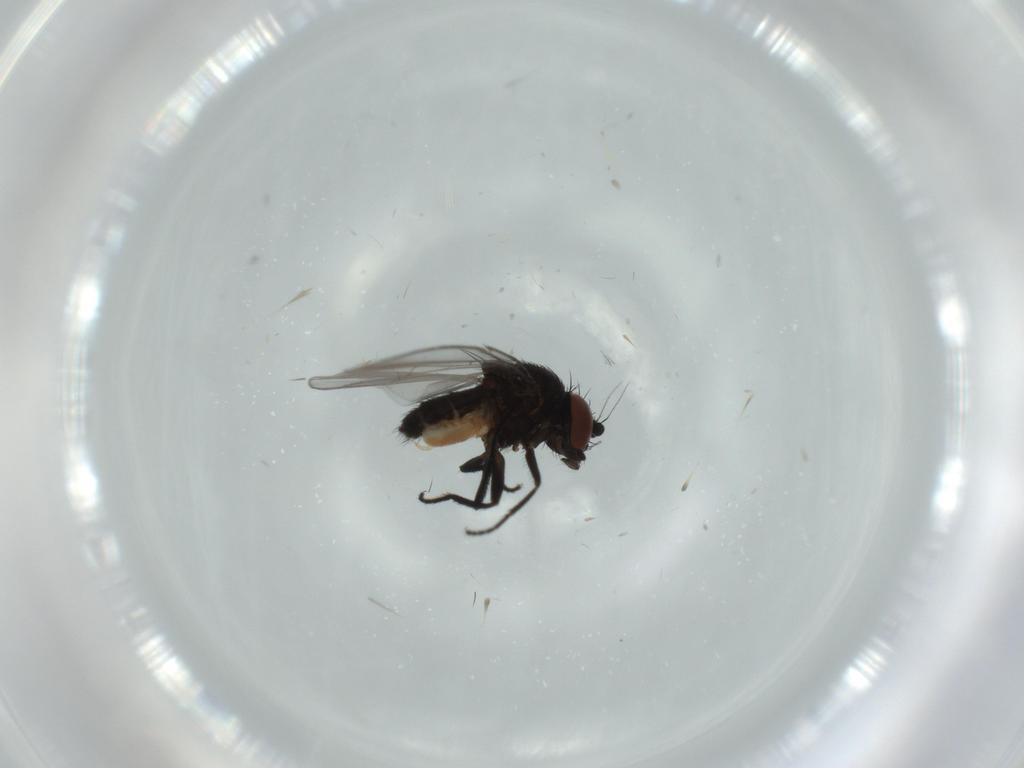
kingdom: Animalia
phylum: Arthropoda
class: Insecta
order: Diptera
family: Milichiidae
